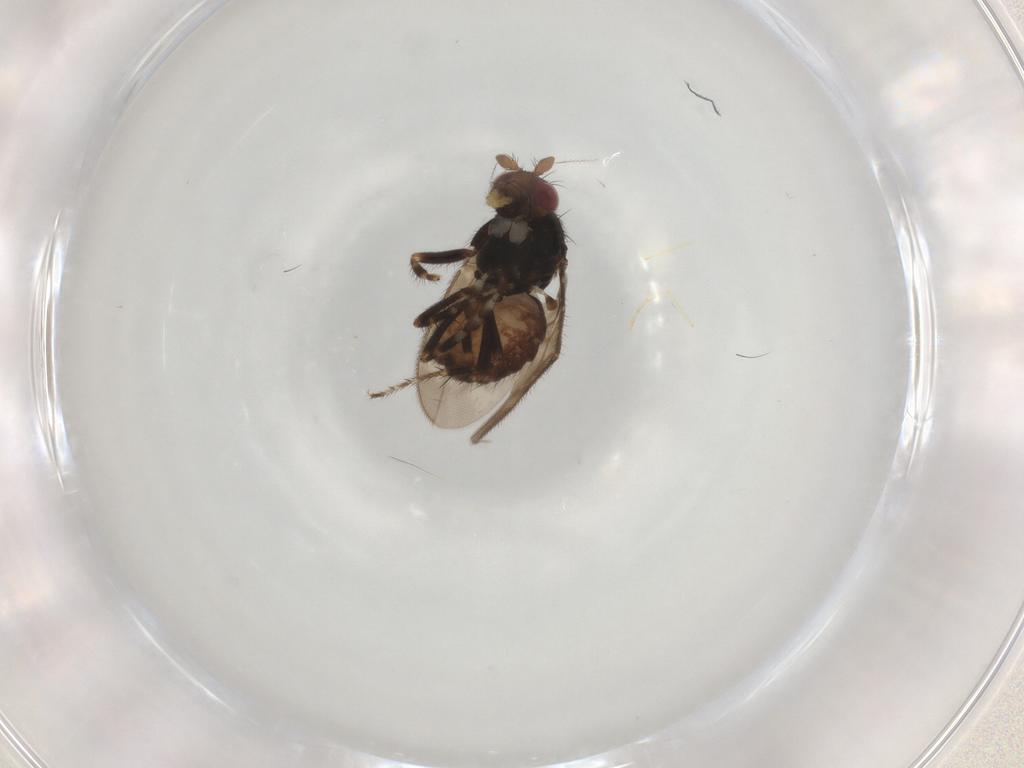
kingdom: Animalia
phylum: Arthropoda
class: Insecta
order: Diptera
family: Sphaeroceridae
